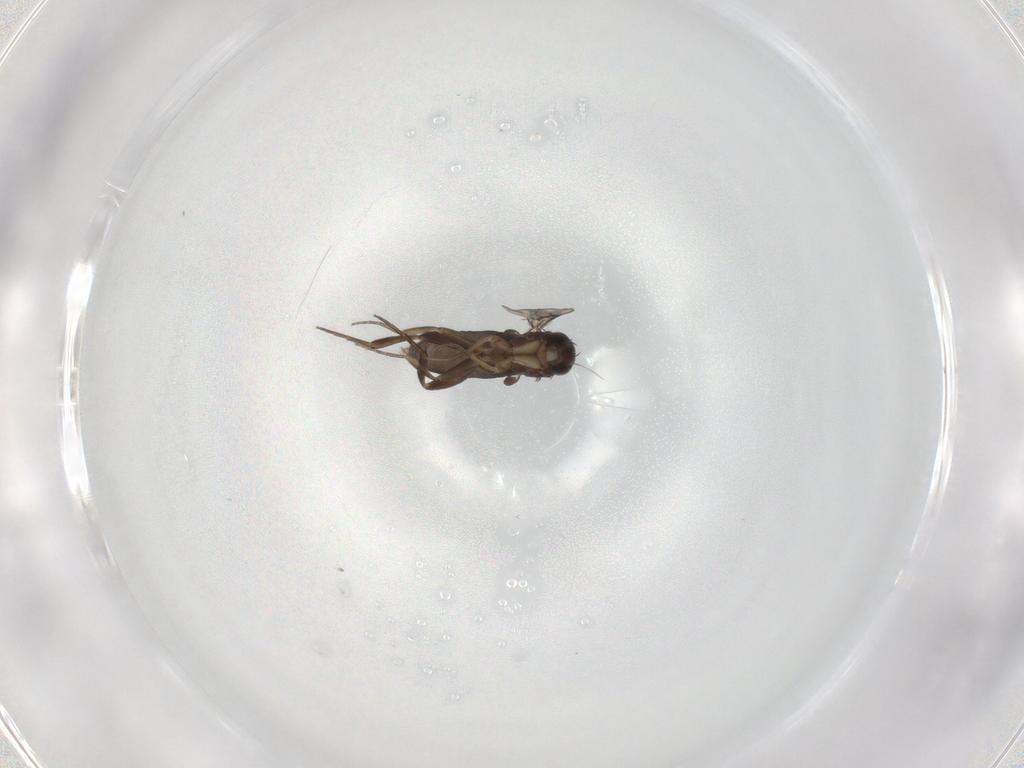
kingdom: Animalia
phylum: Arthropoda
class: Insecta
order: Diptera
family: Phoridae
